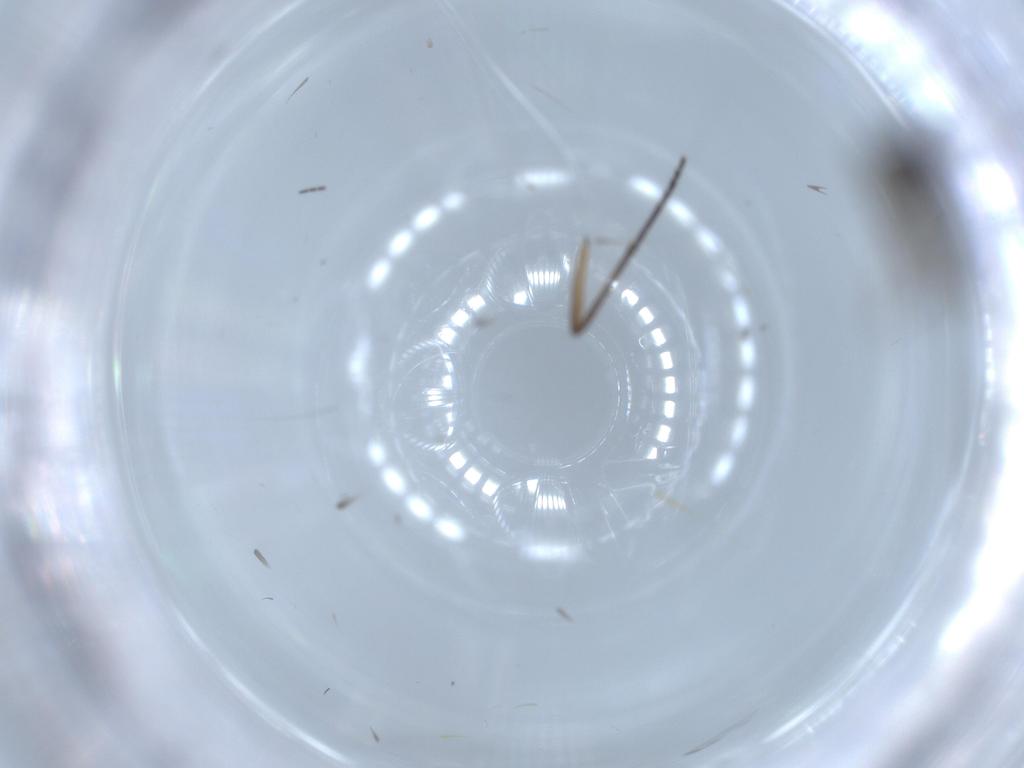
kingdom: Animalia
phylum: Arthropoda
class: Insecta
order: Diptera
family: Sciaridae
